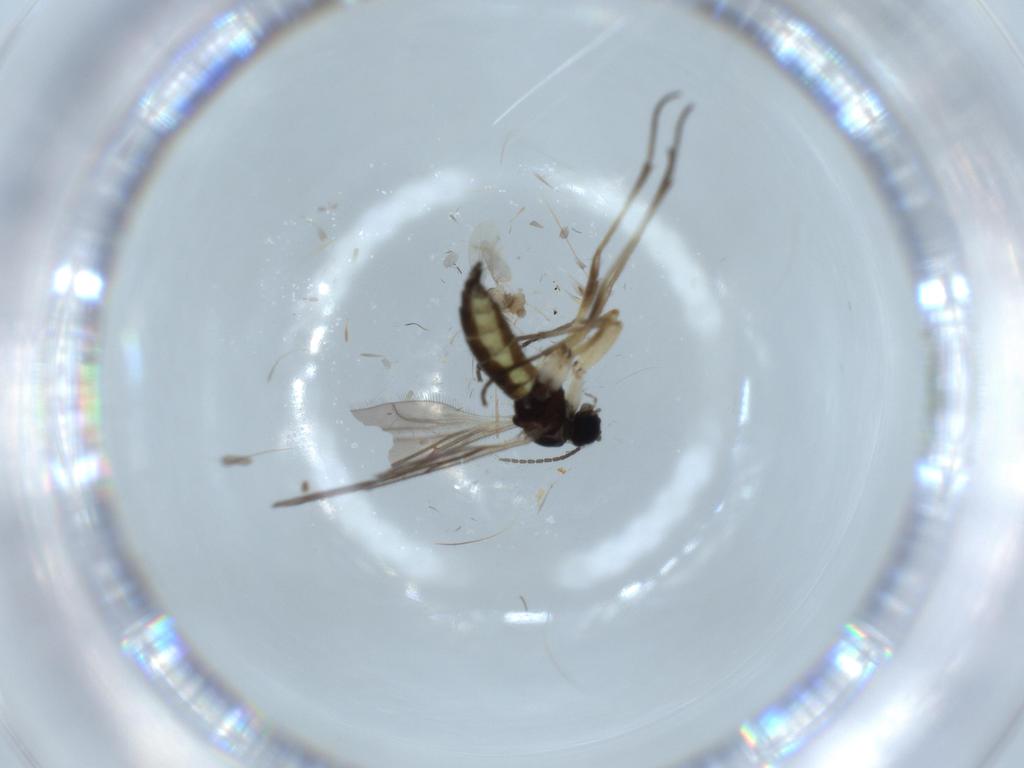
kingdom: Animalia
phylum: Arthropoda
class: Insecta
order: Diptera
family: Sciaridae
